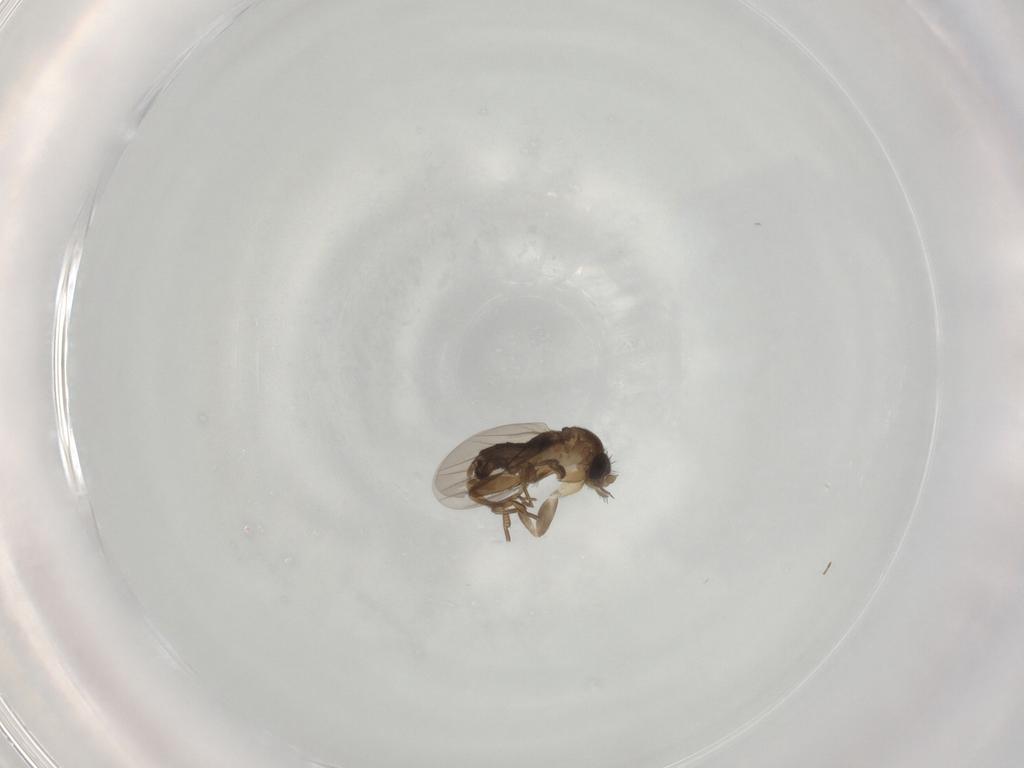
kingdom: Animalia
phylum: Arthropoda
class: Insecta
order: Diptera
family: Phoridae
